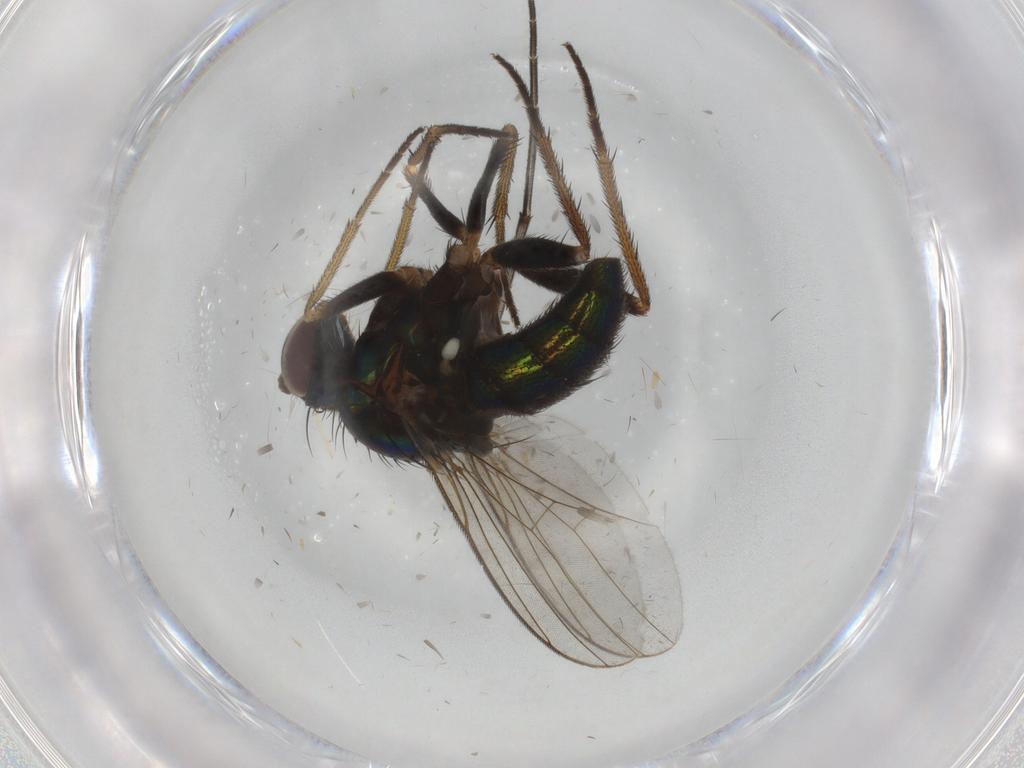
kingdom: Animalia
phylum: Arthropoda
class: Insecta
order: Diptera
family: Dolichopodidae
